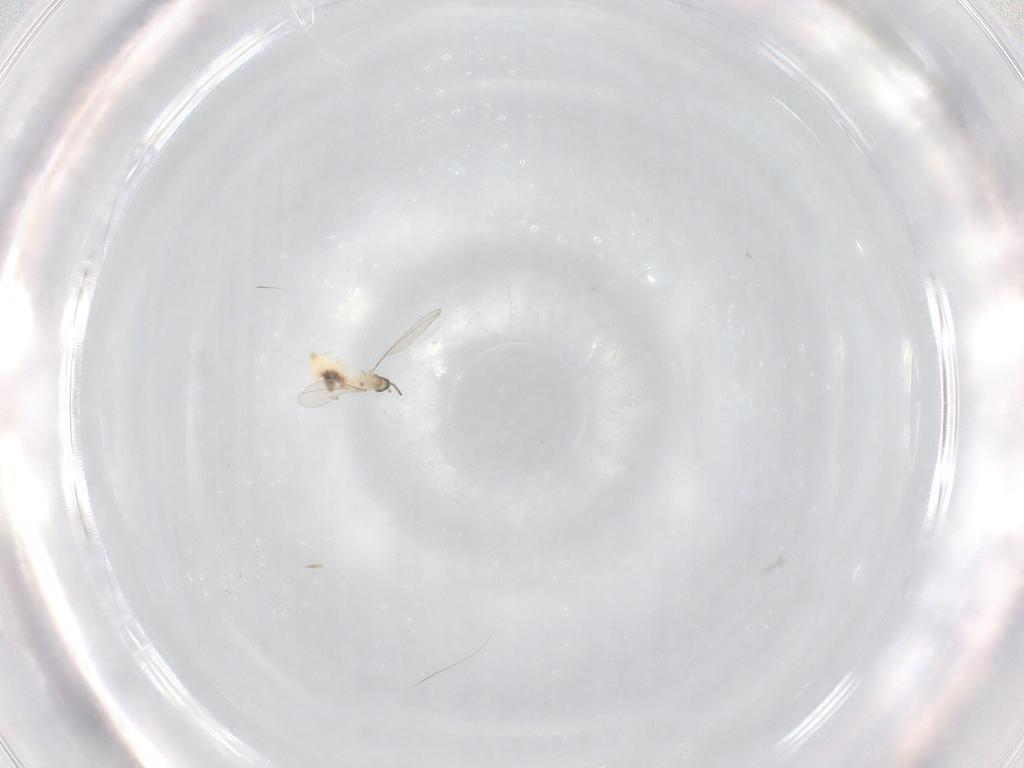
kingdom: Animalia
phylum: Arthropoda
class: Insecta
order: Diptera
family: Cecidomyiidae
